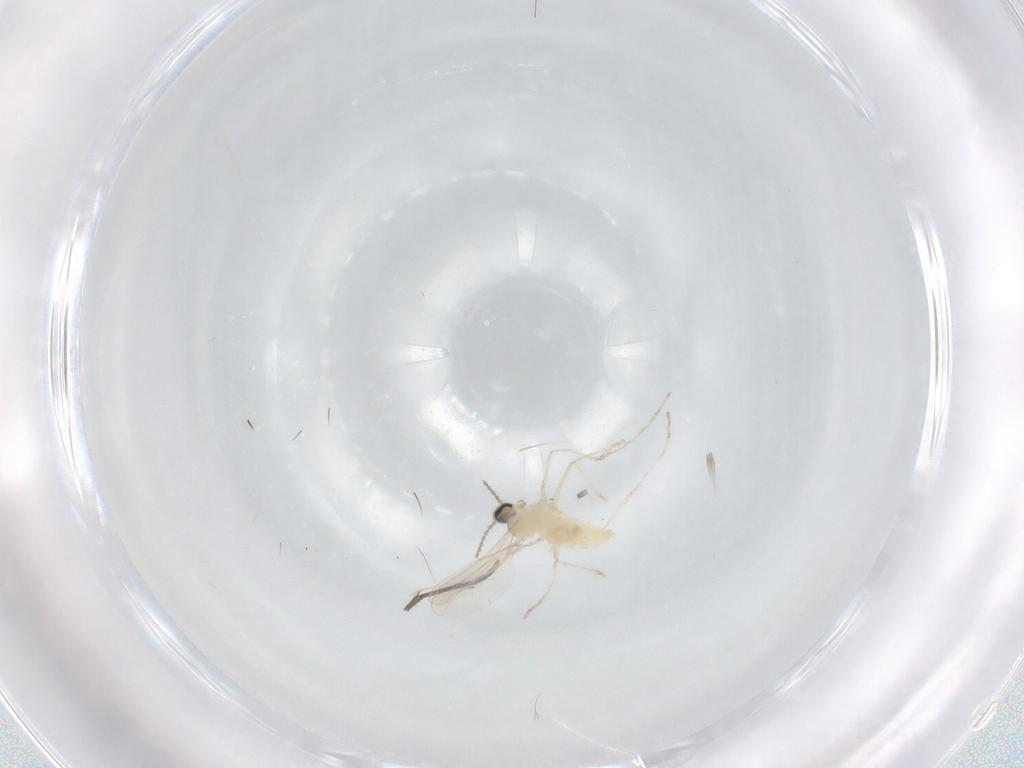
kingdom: Animalia
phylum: Arthropoda
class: Insecta
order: Diptera
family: Sciaridae
